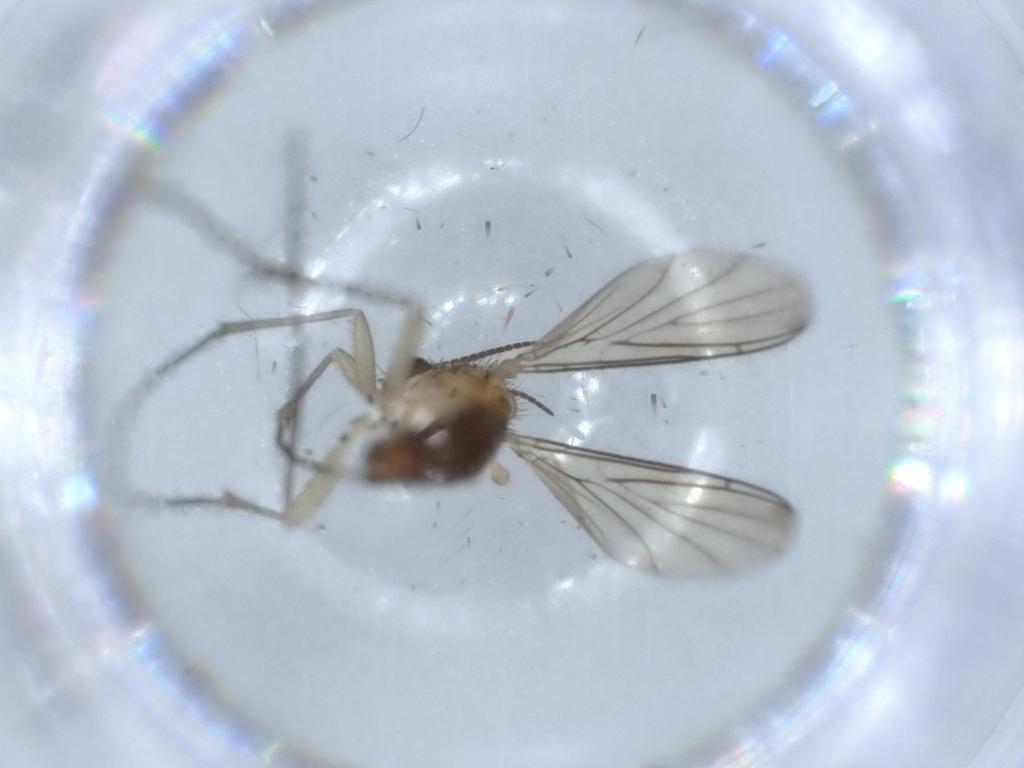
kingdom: Animalia
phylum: Arthropoda
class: Insecta
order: Diptera
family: Keroplatidae
